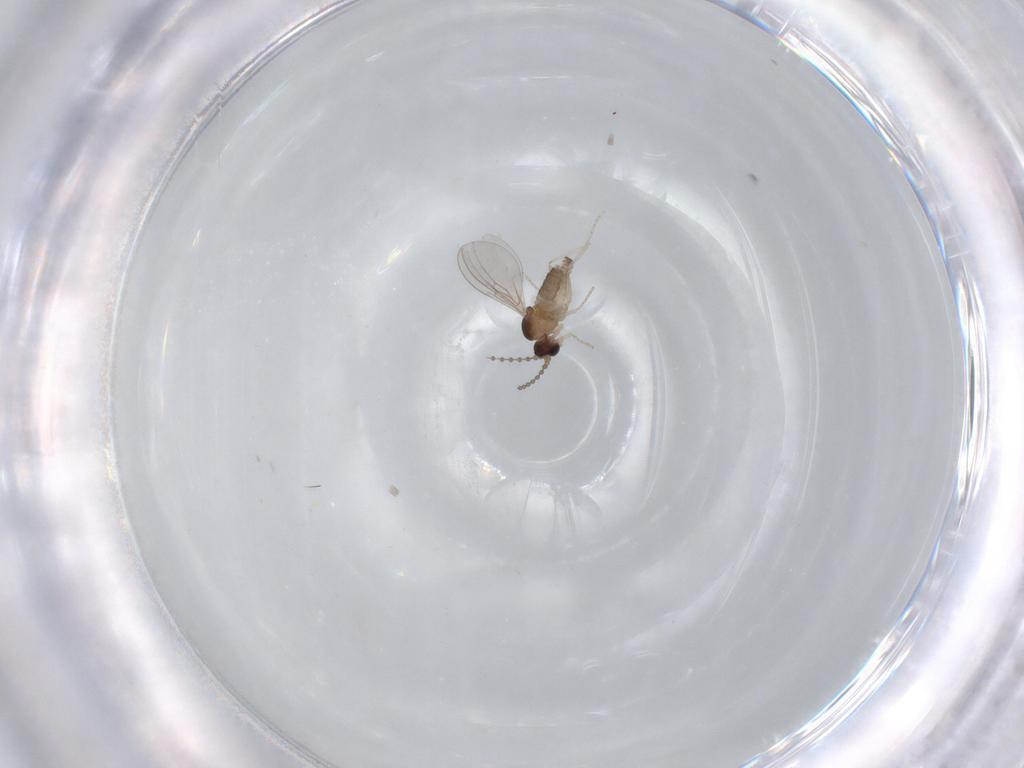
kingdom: Animalia
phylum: Arthropoda
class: Insecta
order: Diptera
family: Cecidomyiidae
